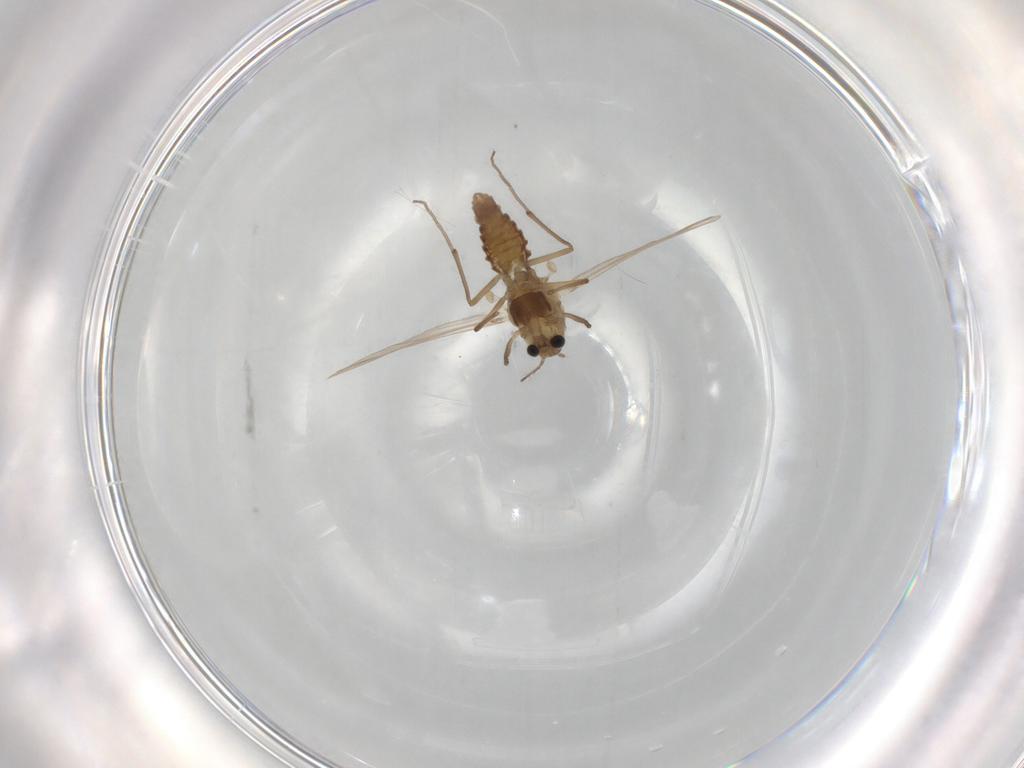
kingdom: Animalia
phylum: Arthropoda
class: Insecta
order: Diptera
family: Chironomidae
